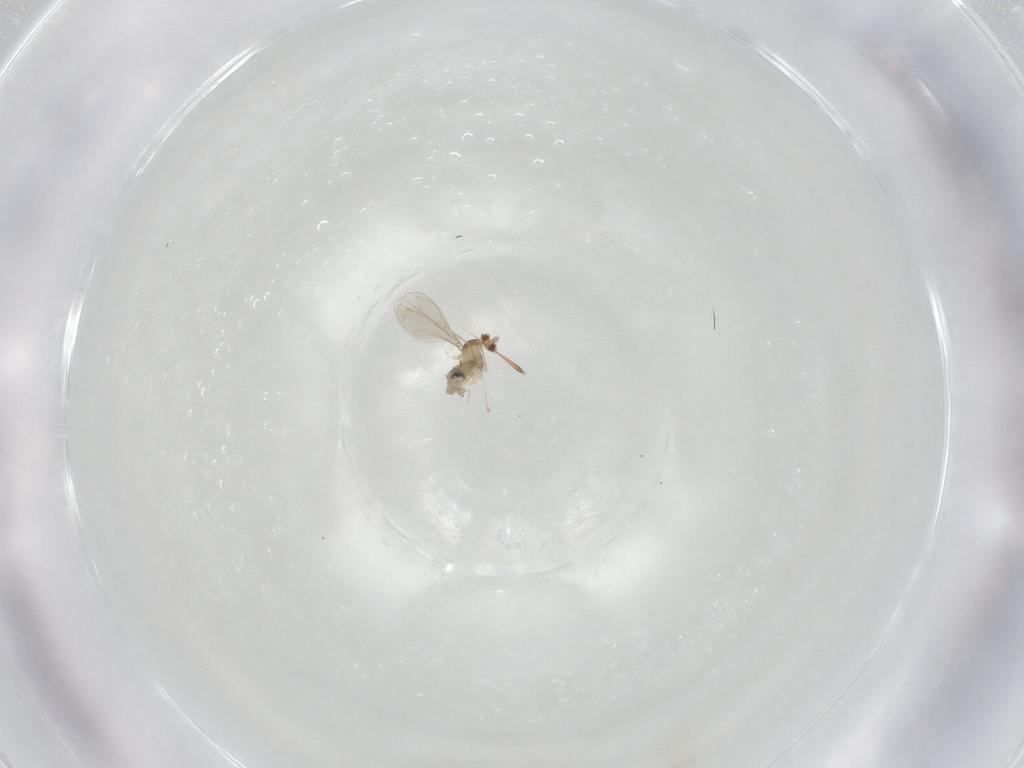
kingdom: Animalia
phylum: Arthropoda
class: Insecta
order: Diptera
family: Cecidomyiidae
